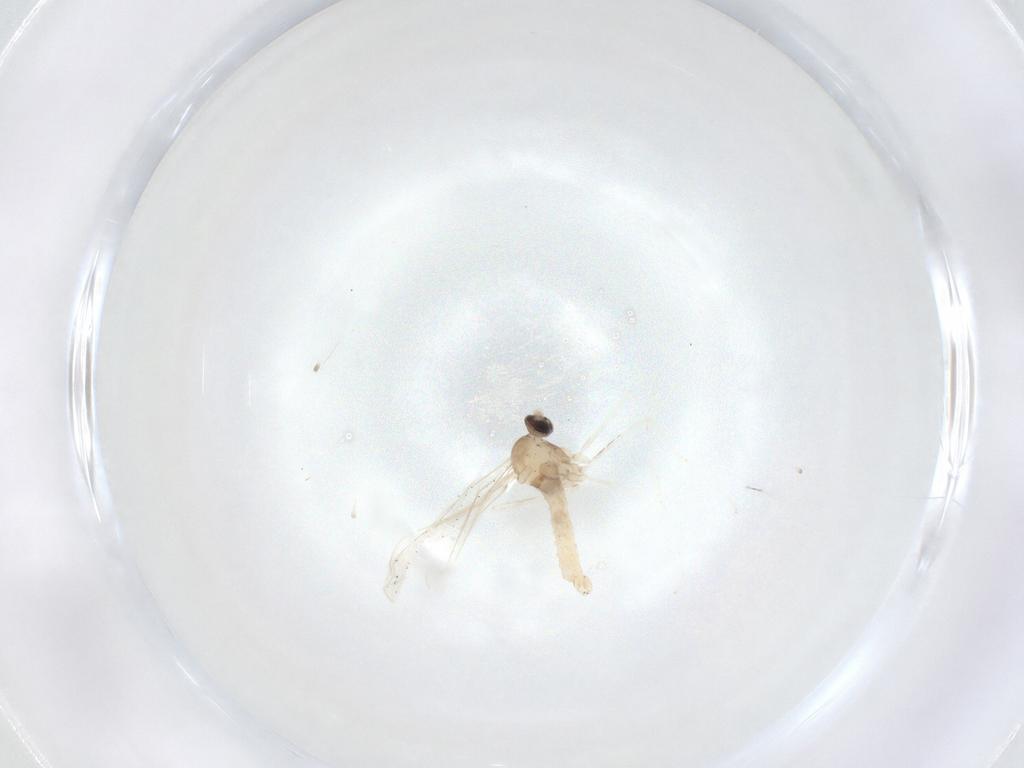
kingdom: Animalia
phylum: Arthropoda
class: Insecta
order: Diptera
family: Cecidomyiidae
